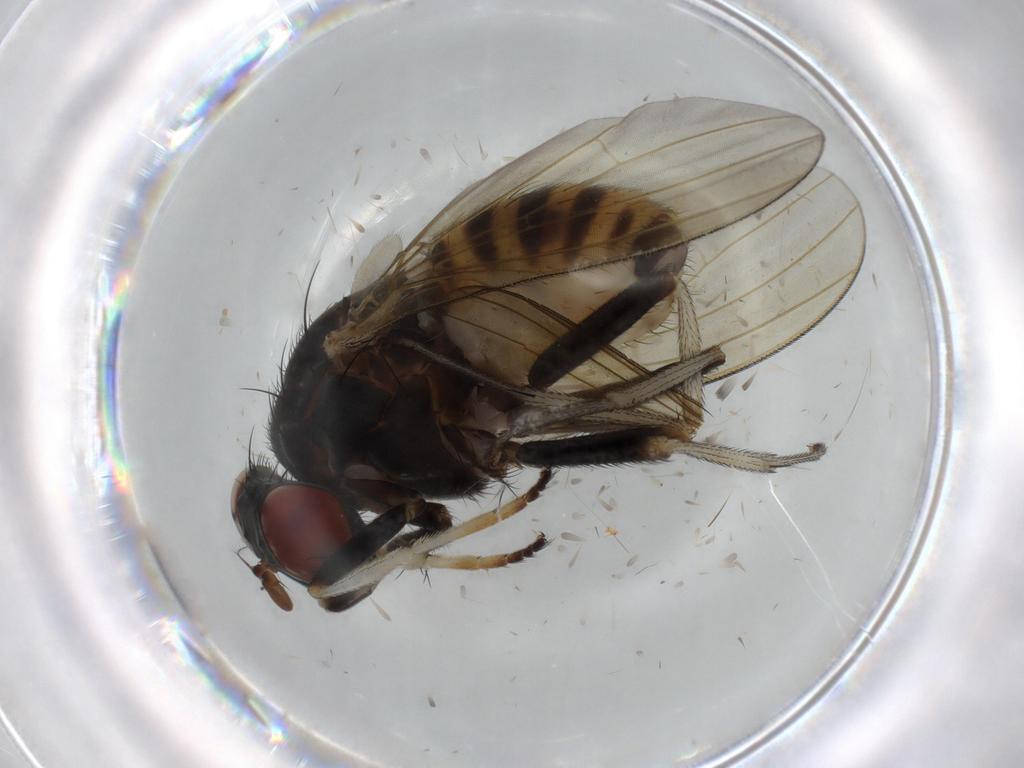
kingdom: Animalia
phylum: Arthropoda
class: Insecta
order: Diptera
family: Dolichopodidae
